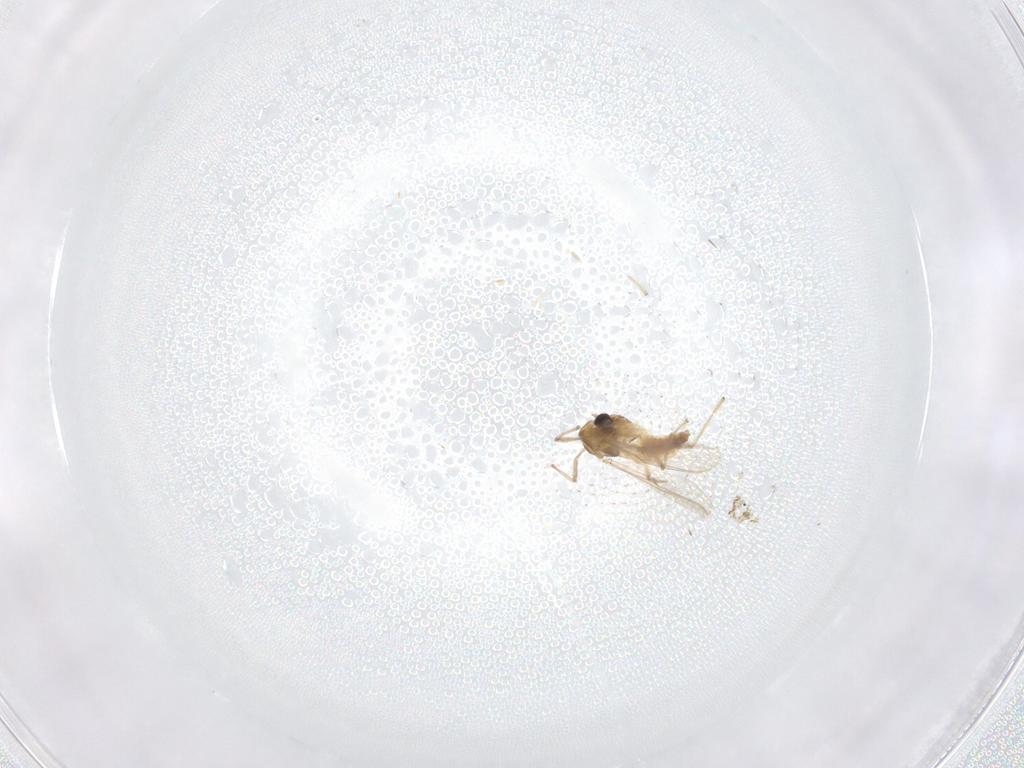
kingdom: Animalia
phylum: Arthropoda
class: Insecta
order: Diptera
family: Chironomidae
